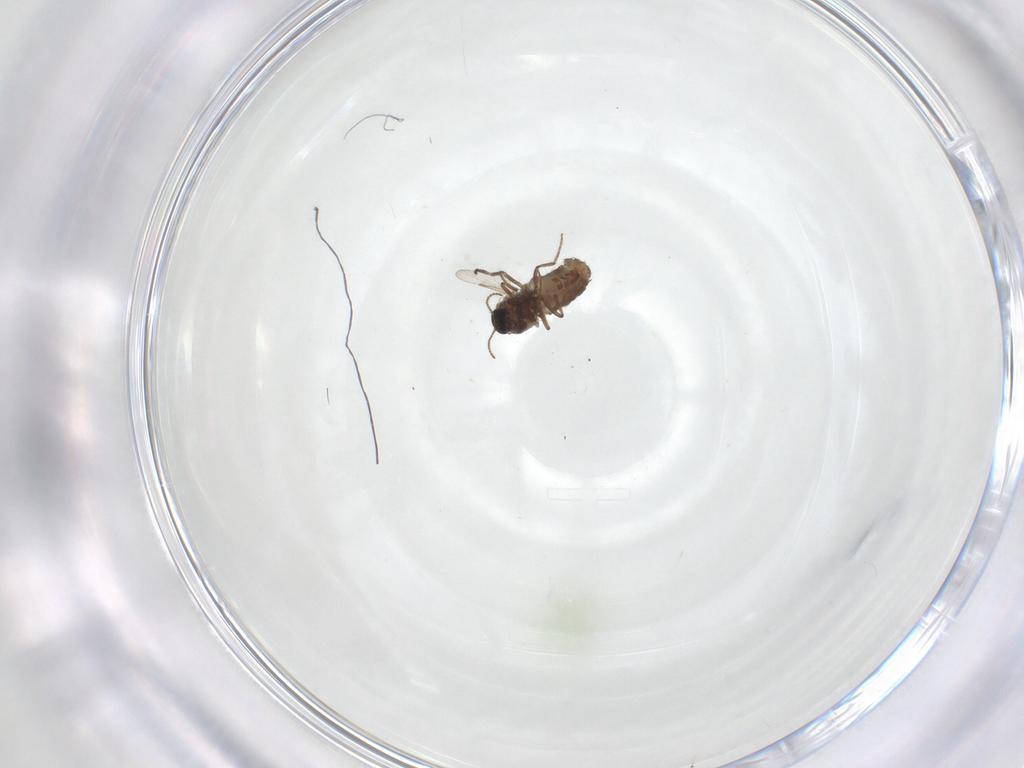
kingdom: Animalia
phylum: Arthropoda
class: Insecta
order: Diptera
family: Ceratopogonidae
